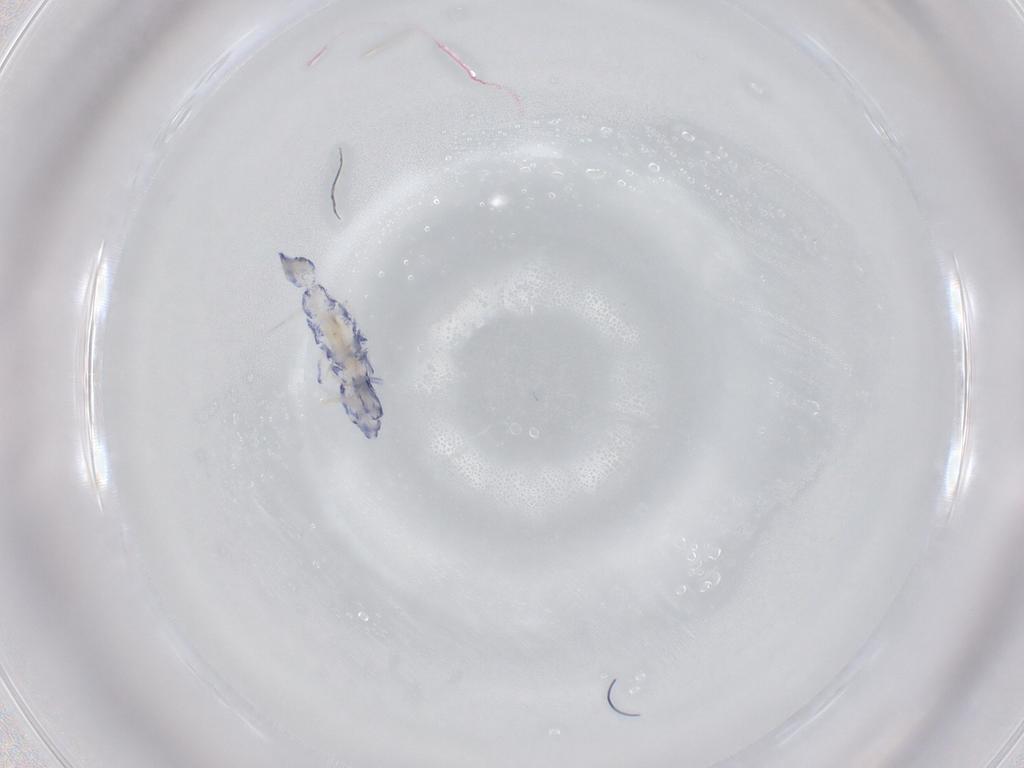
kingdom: Animalia
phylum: Arthropoda
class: Collembola
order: Entomobryomorpha
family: Entomobryidae
